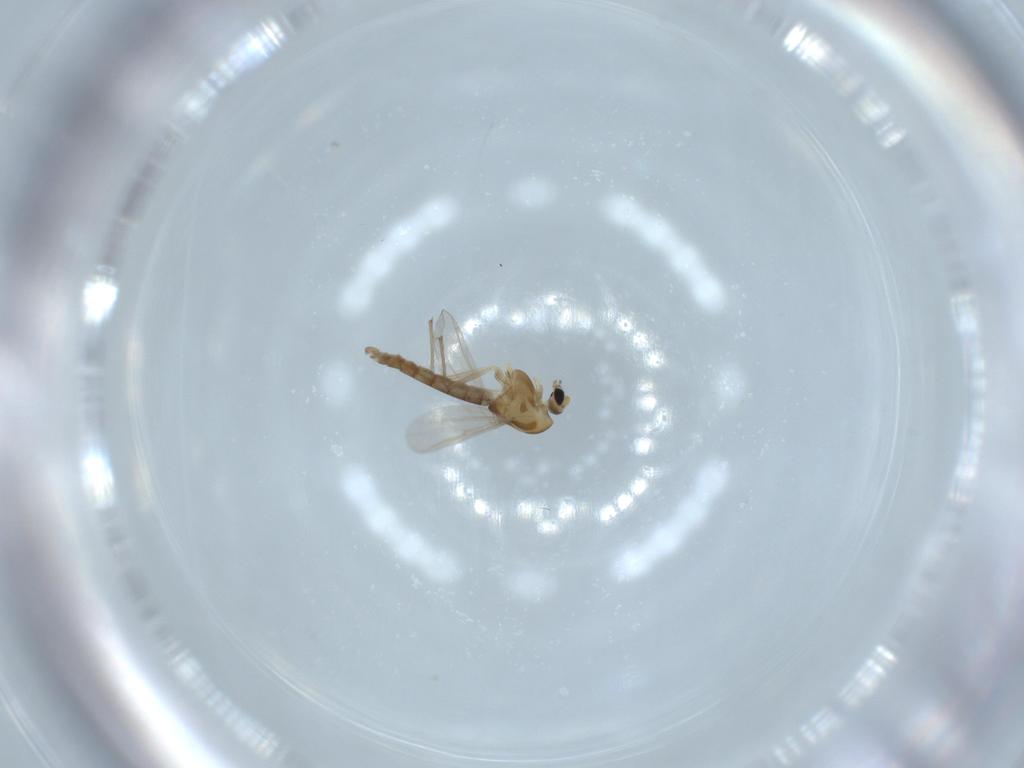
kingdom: Animalia
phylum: Arthropoda
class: Insecta
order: Diptera
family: Chironomidae
